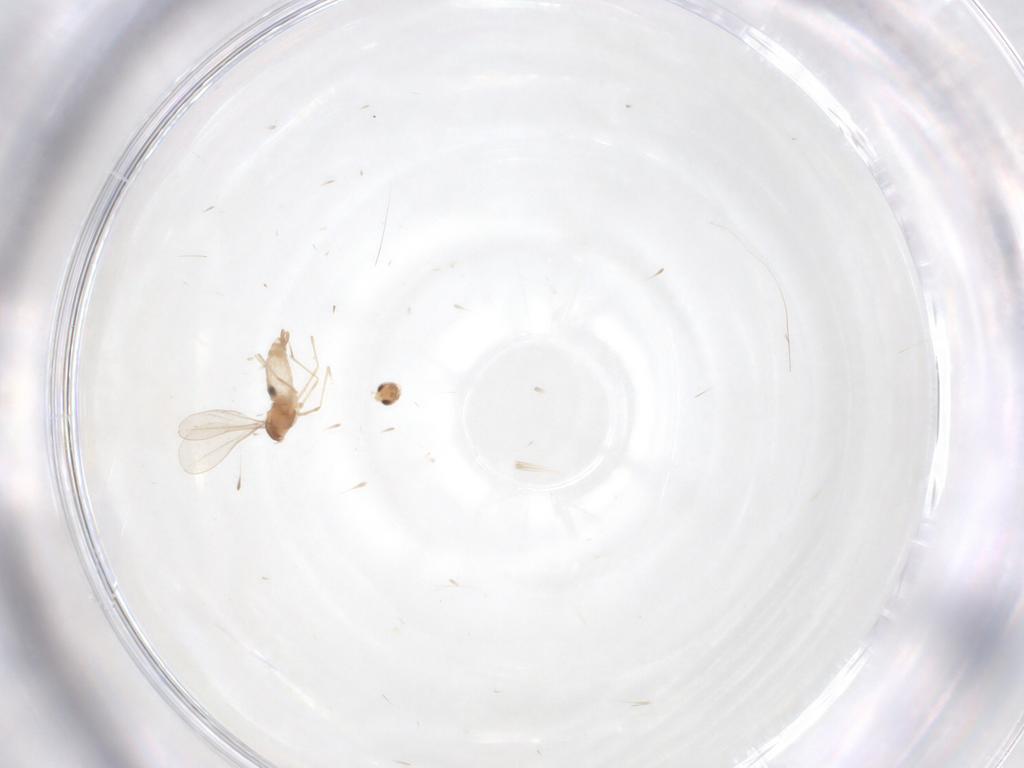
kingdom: Animalia
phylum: Arthropoda
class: Insecta
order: Diptera
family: Cecidomyiidae
